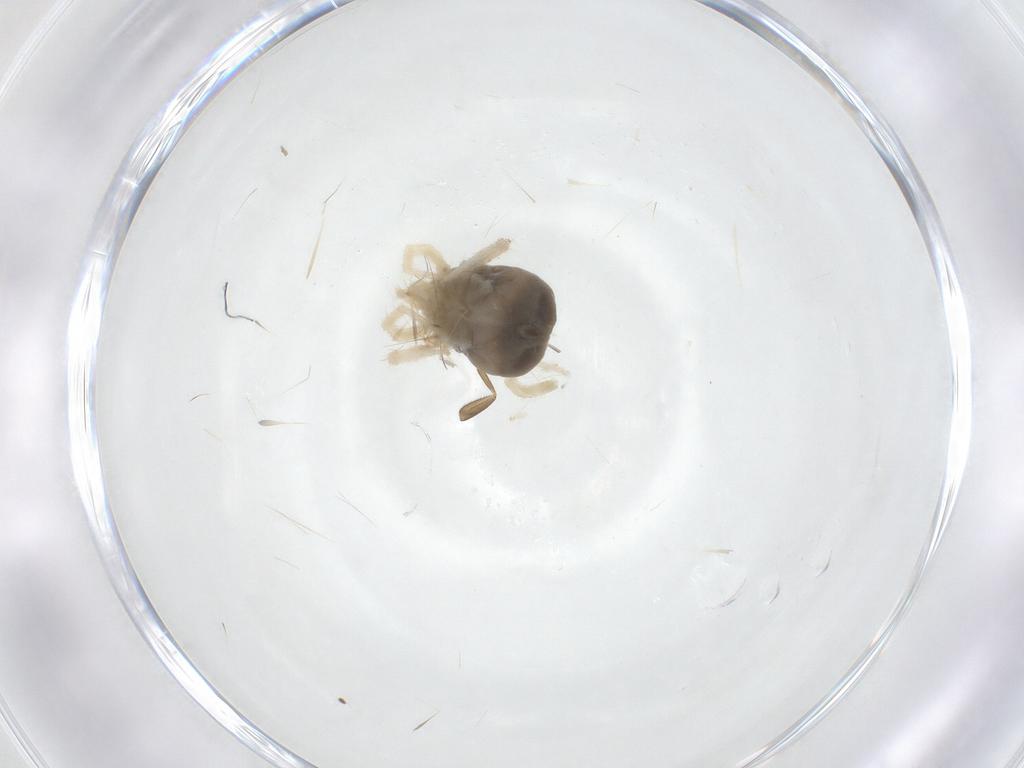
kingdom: Animalia
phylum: Arthropoda
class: Arachnida
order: Trombidiformes
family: Anystidae
